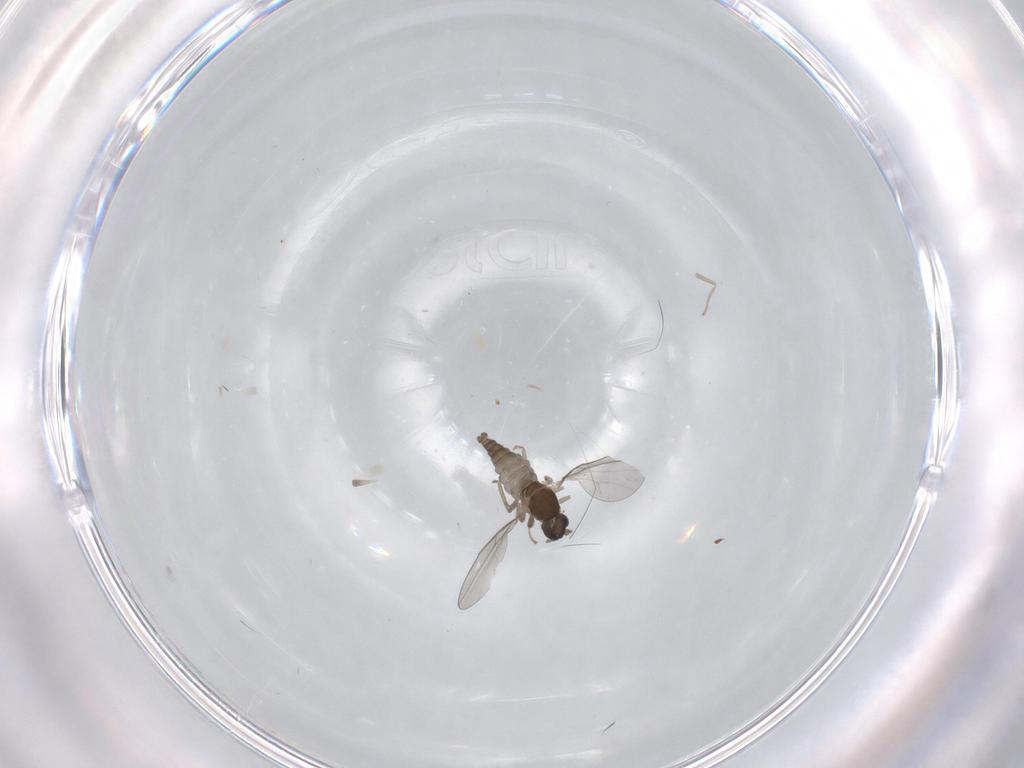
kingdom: Animalia
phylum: Arthropoda
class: Insecta
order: Diptera
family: Cecidomyiidae
